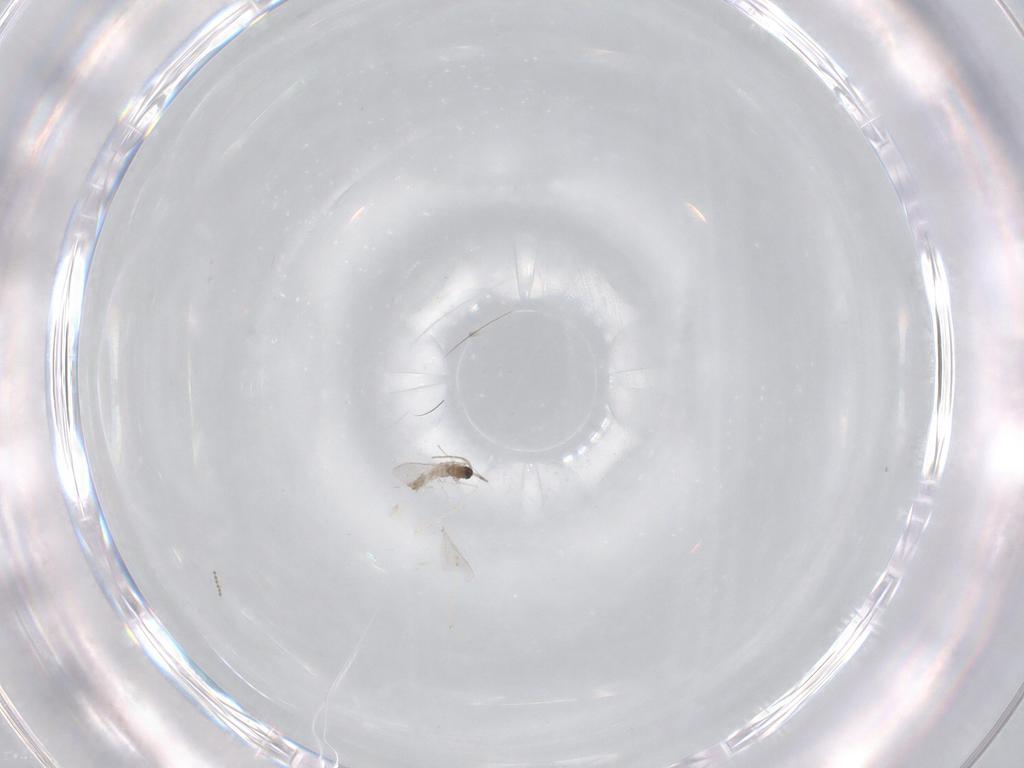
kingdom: Animalia
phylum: Arthropoda
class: Insecta
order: Diptera
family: Cecidomyiidae
